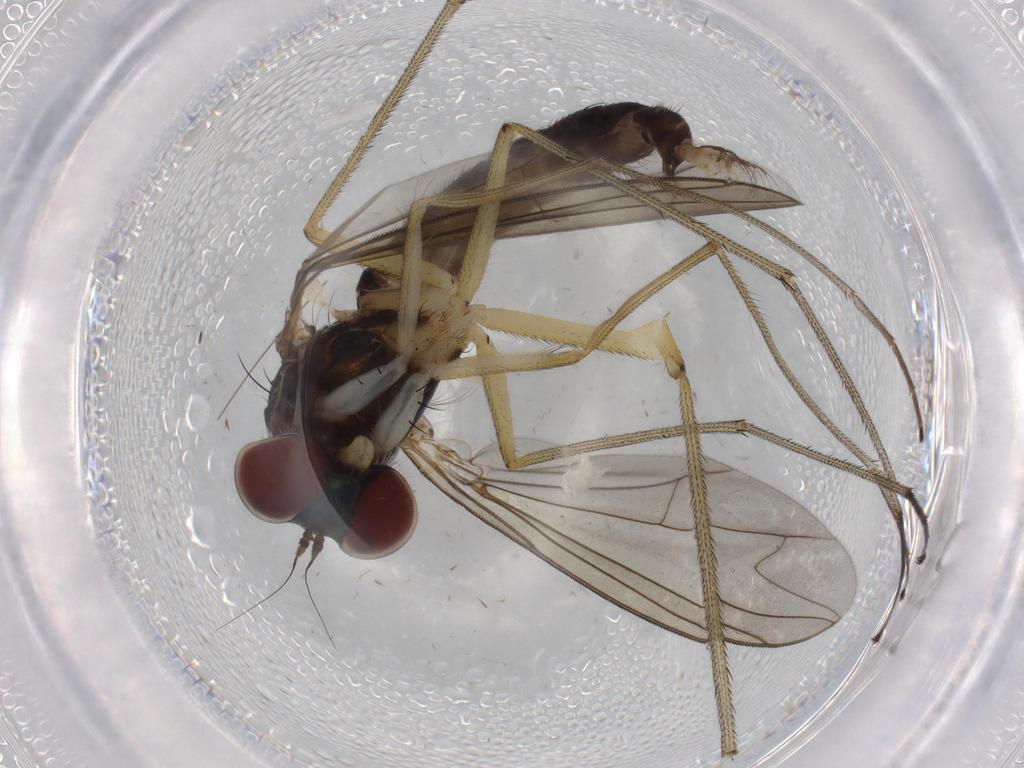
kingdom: Animalia
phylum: Arthropoda
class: Insecta
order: Diptera
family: Dolichopodidae
